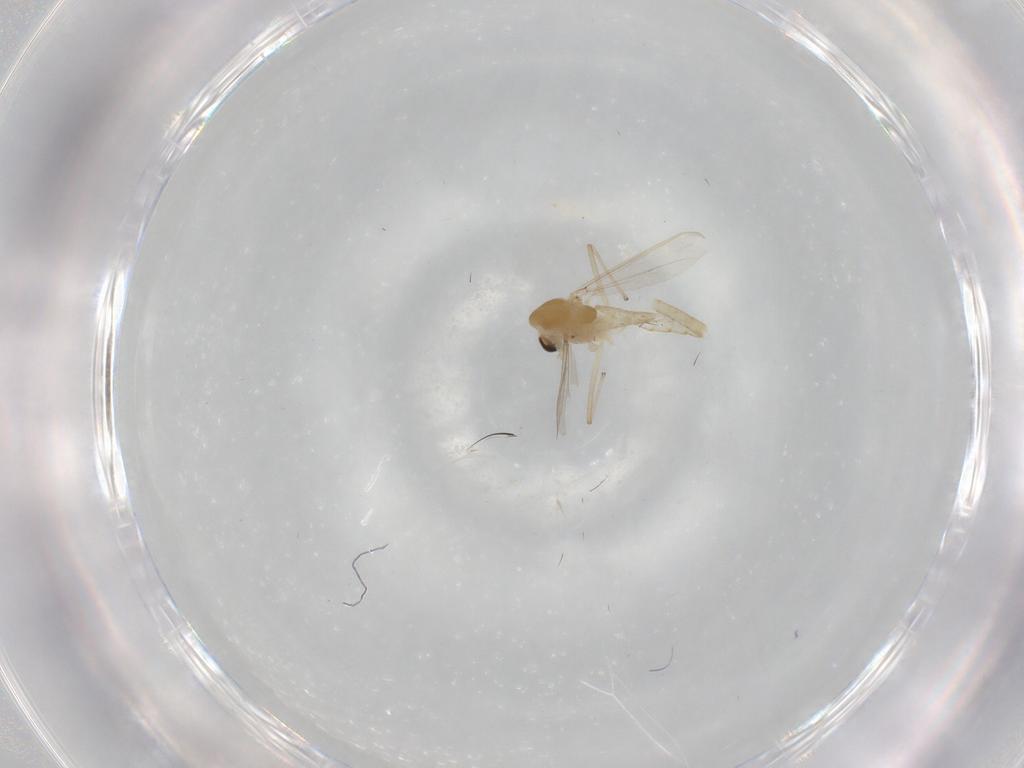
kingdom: Animalia
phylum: Arthropoda
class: Insecta
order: Diptera
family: Chironomidae
